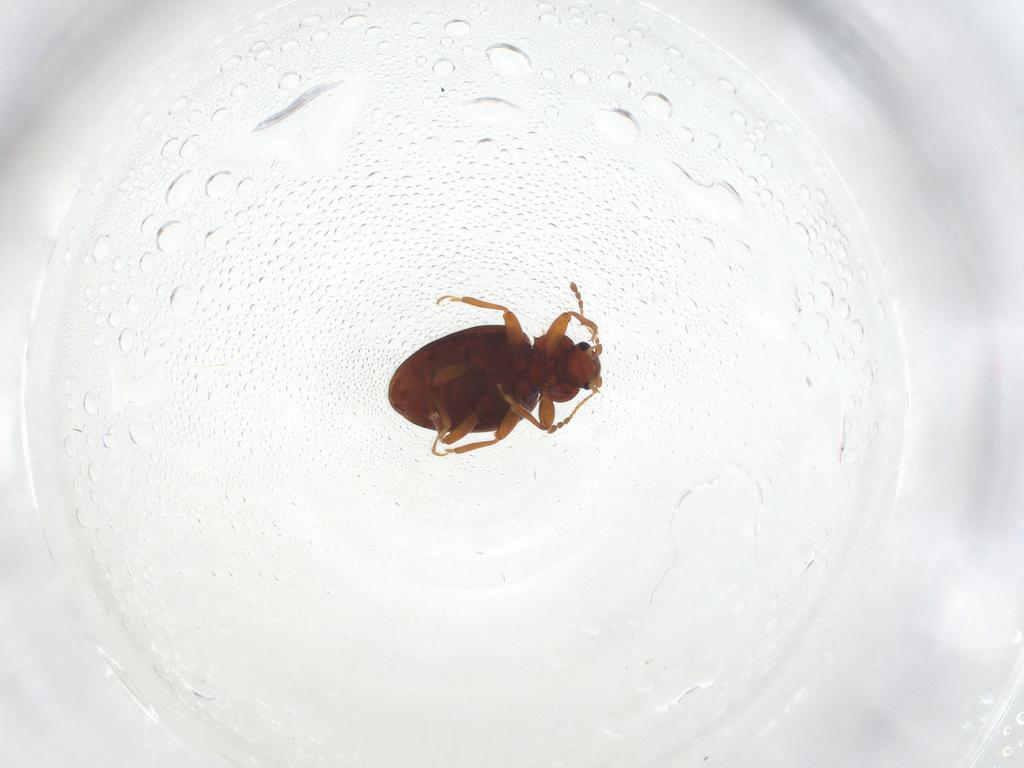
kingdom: Animalia
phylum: Arthropoda
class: Insecta
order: Coleoptera
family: Latridiidae
